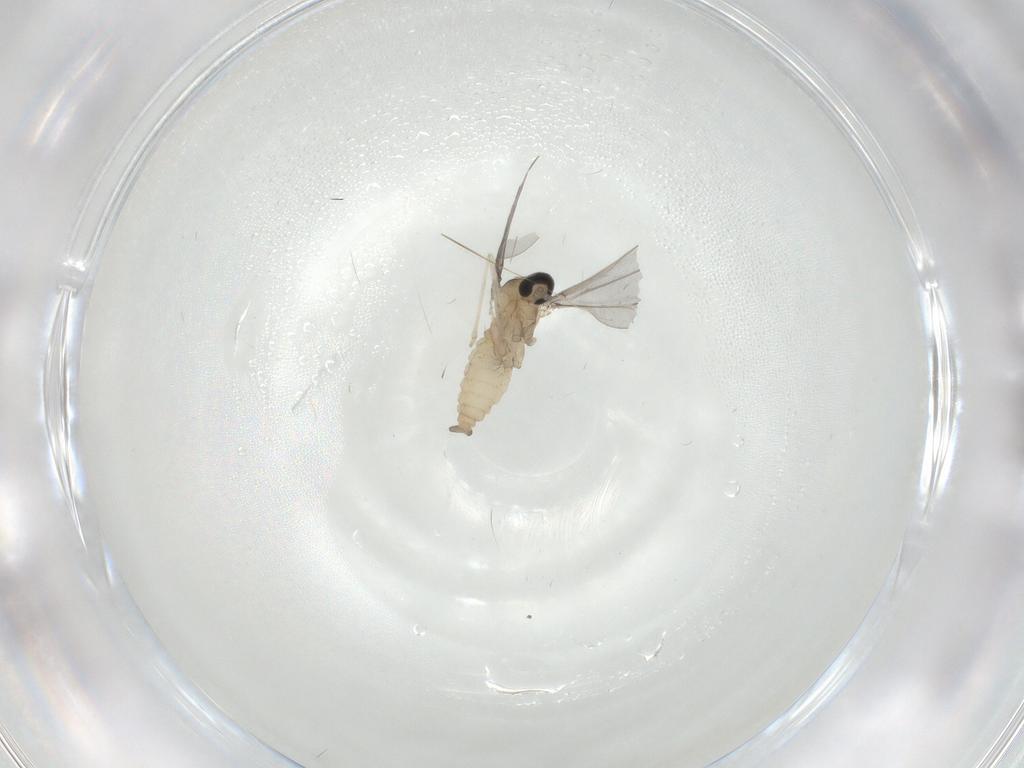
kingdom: Animalia
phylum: Arthropoda
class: Insecta
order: Diptera
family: Cecidomyiidae
